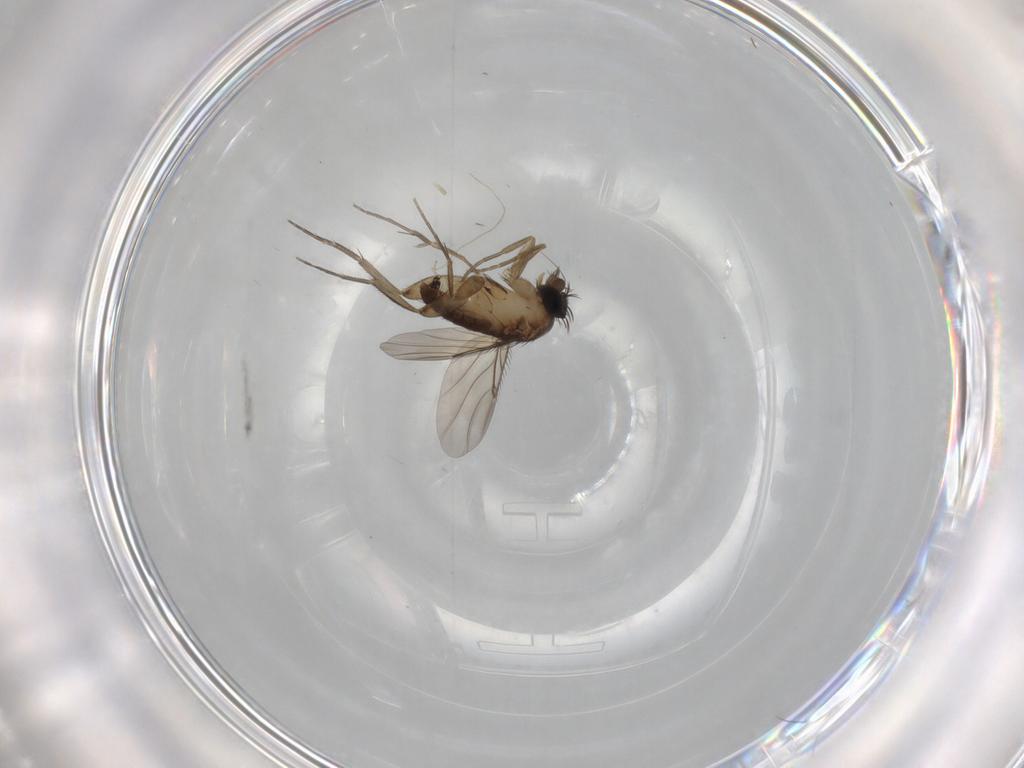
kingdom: Animalia
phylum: Arthropoda
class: Insecta
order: Diptera
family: Phoridae
